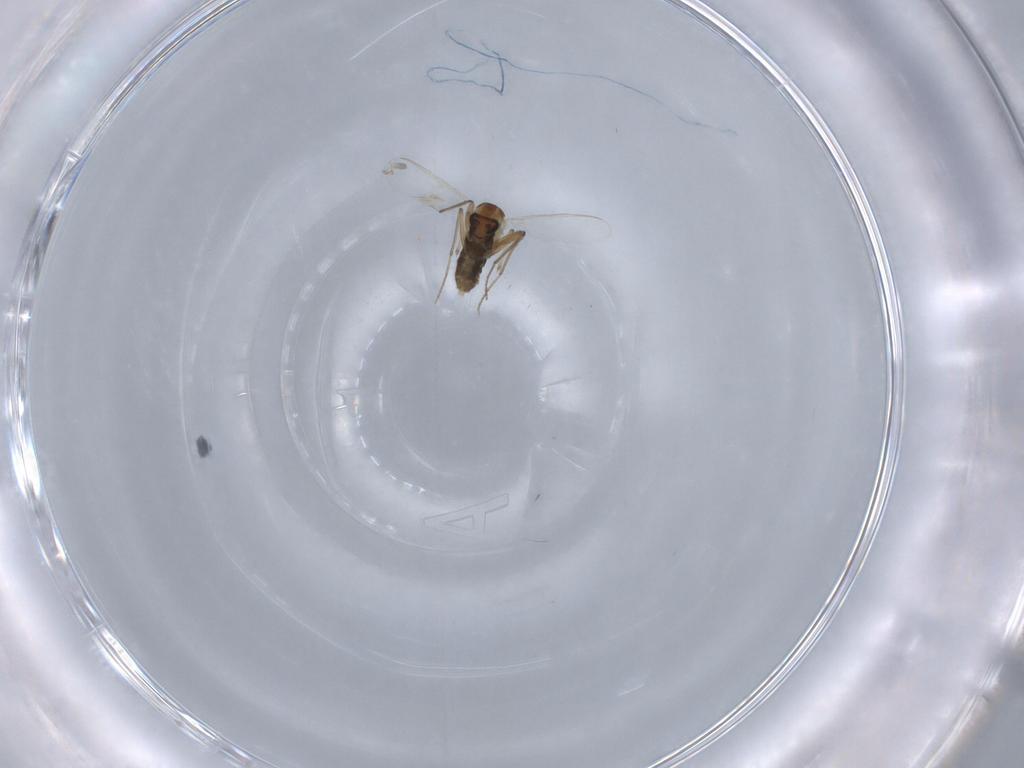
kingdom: Animalia
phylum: Arthropoda
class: Insecta
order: Diptera
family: Chironomidae
